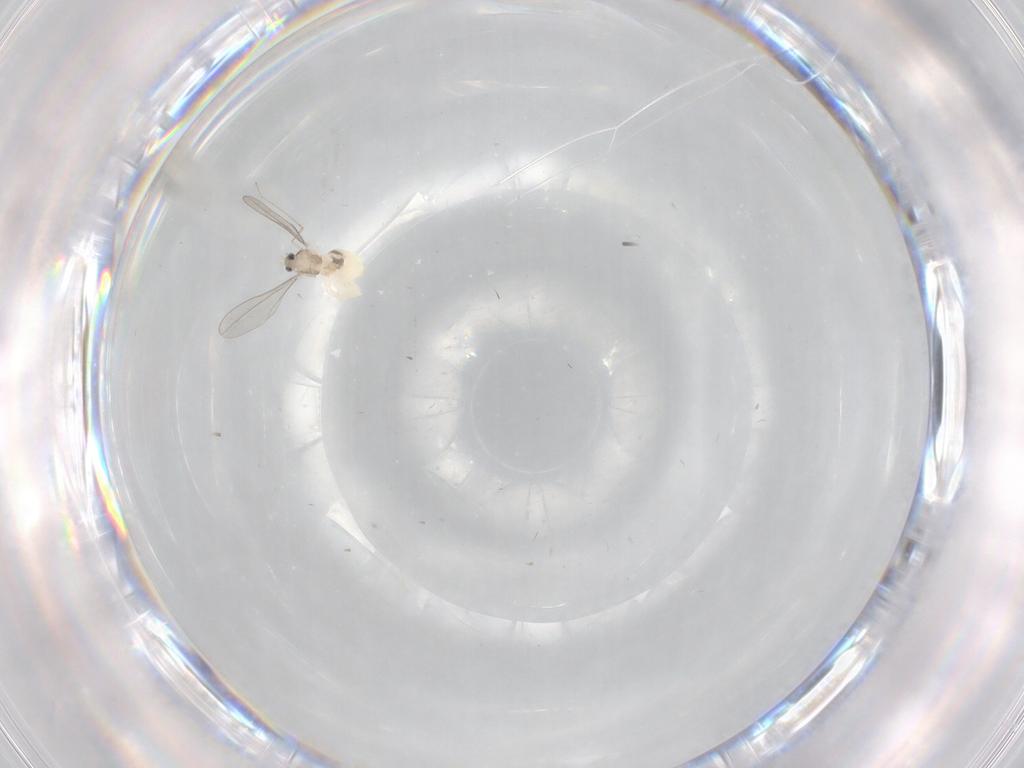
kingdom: Animalia
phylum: Arthropoda
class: Insecta
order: Diptera
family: Cecidomyiidae
